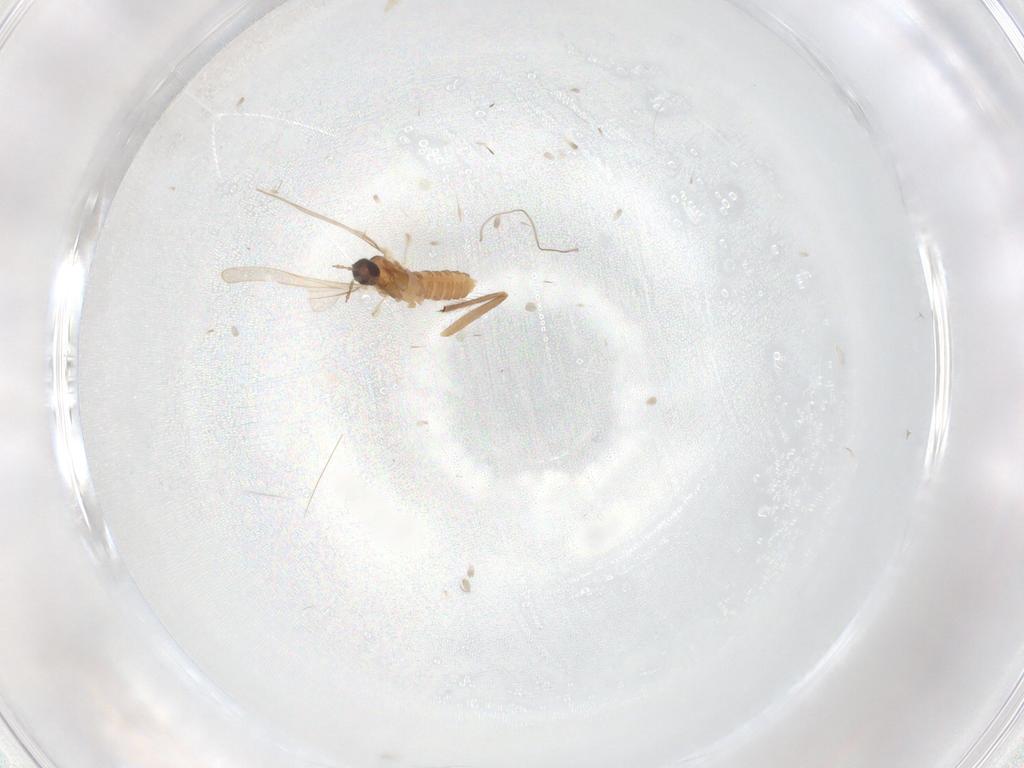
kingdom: Animalia
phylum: Arthropoda
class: Insecta
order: Diptera
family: Cecidomyiidae
